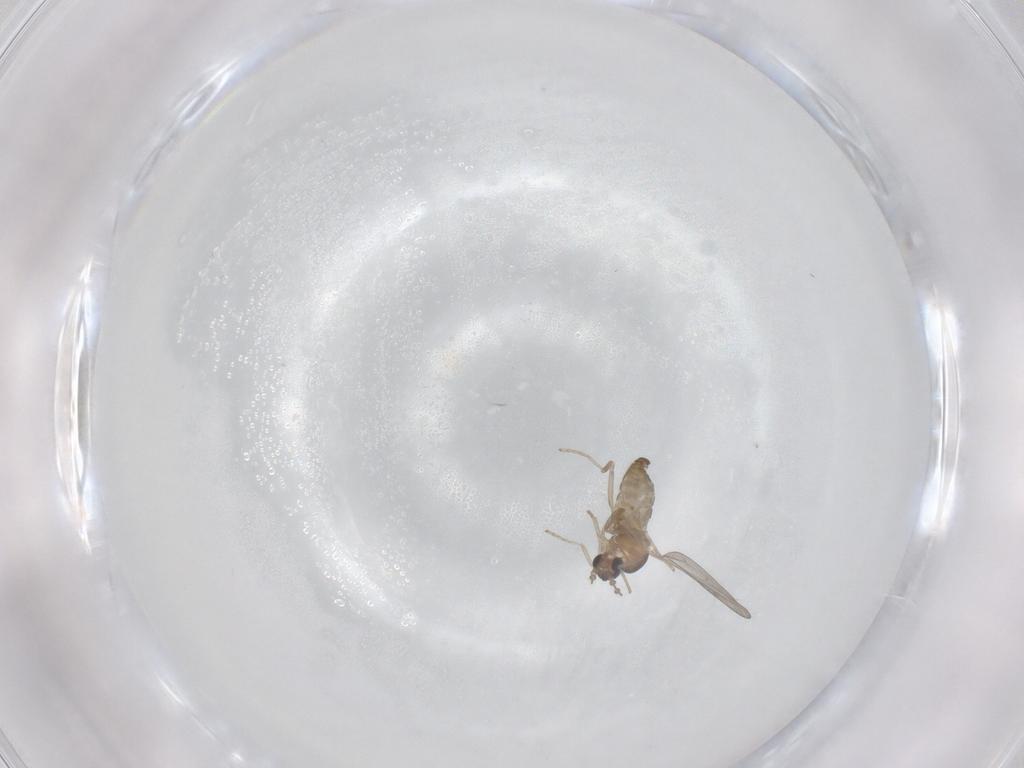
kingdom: Animalia
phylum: Arthropoda
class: Insecta
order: Diptera
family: Cecidomyiidae
